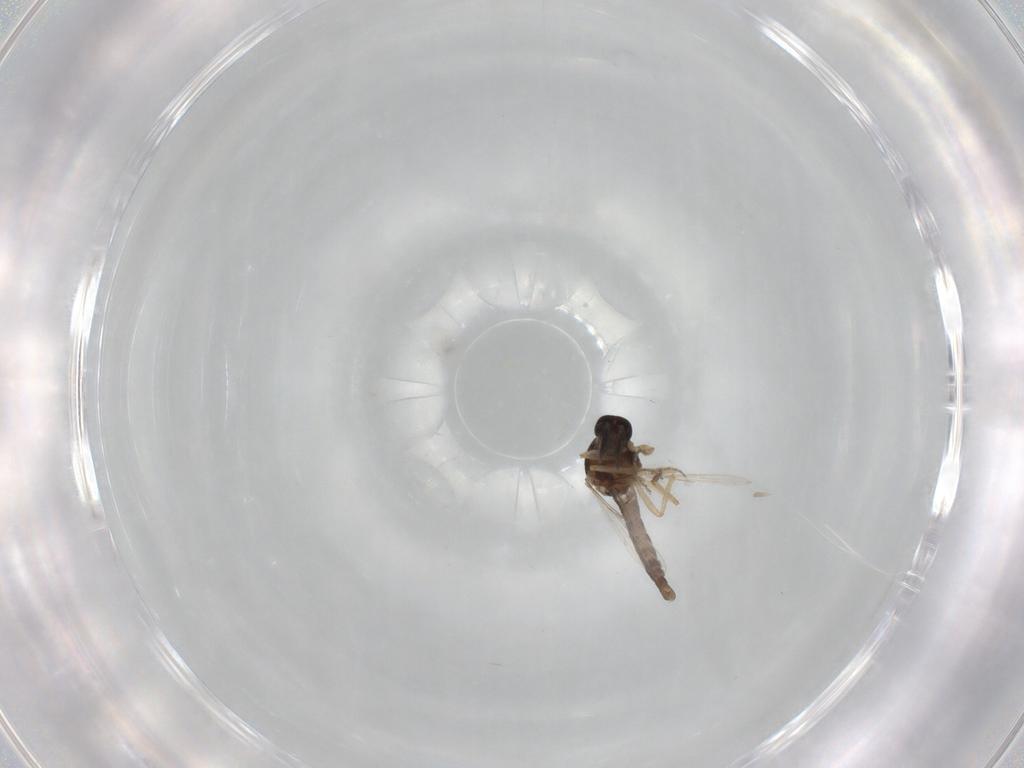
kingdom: Animalia
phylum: Arthropoda
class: Insecta
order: Diptera
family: Ceratopogonidae
